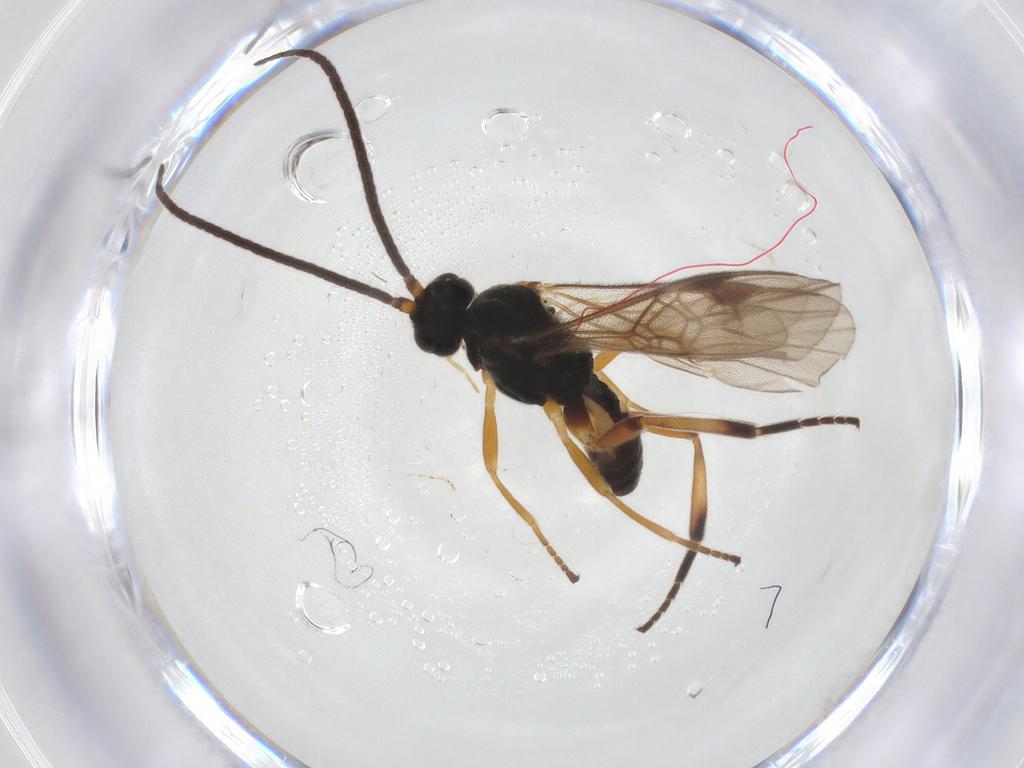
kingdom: Animalia
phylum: Arthropoda
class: Insecta
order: Hymenoptera
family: Braconidae
